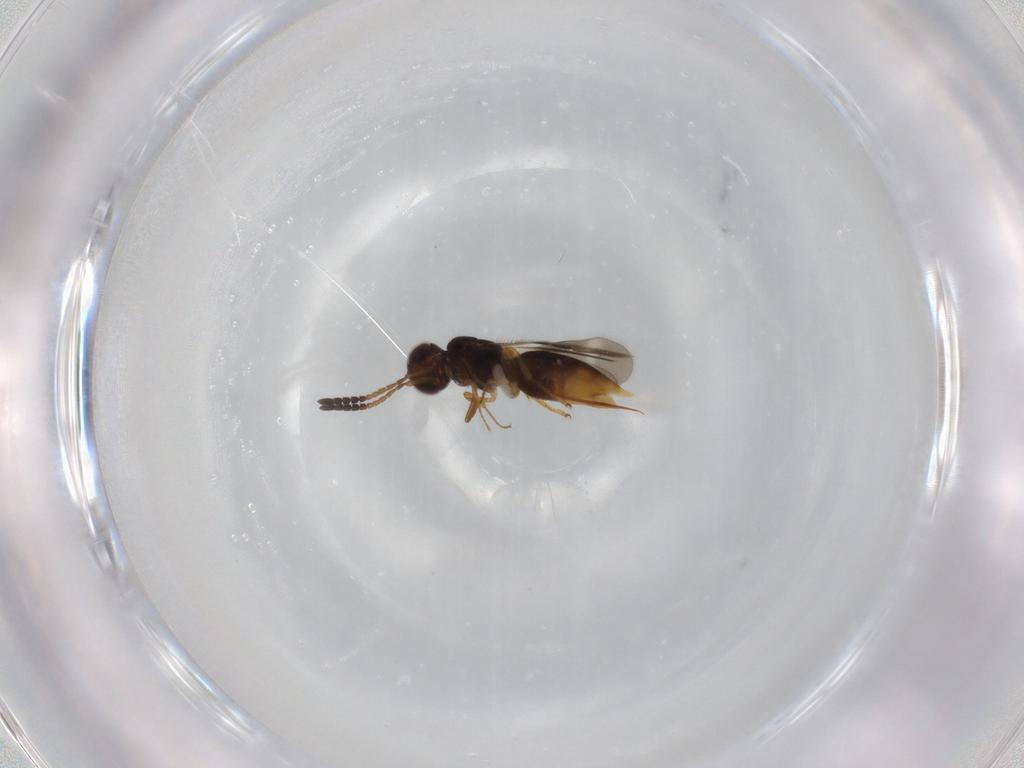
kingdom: Animalia
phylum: Arthropoda
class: Insecta
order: Hymenoptera
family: Ceraphronidae
